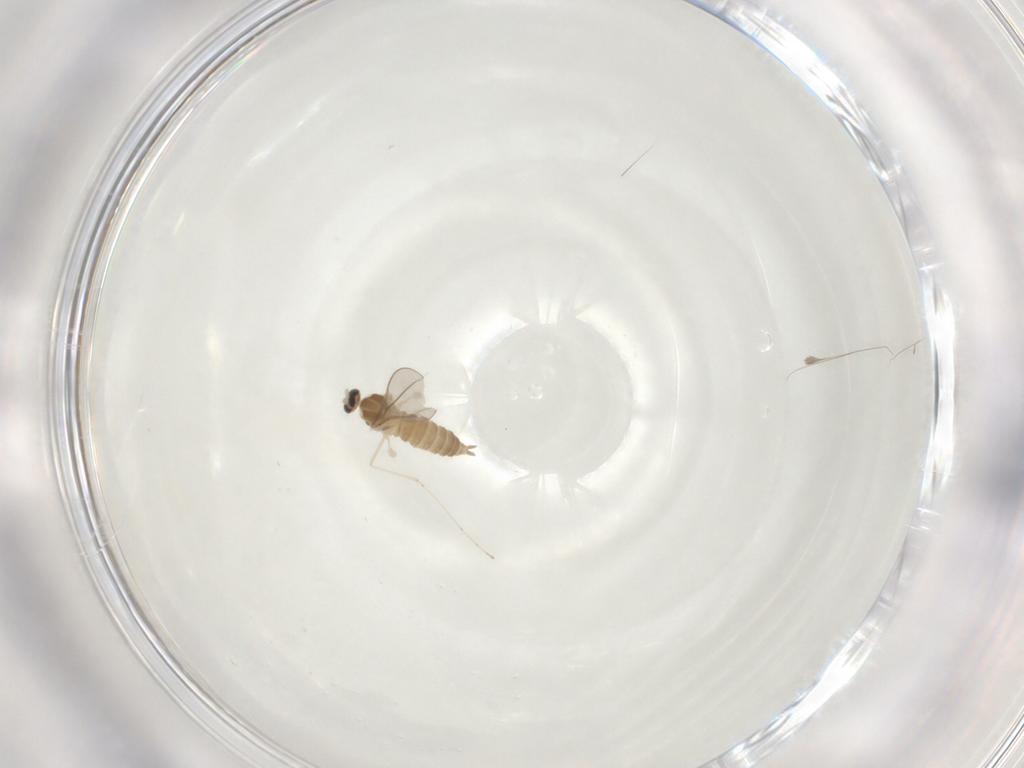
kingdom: Animalia
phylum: Arthropoda
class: Insecta
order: Diptera
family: Cecidomyiidae
